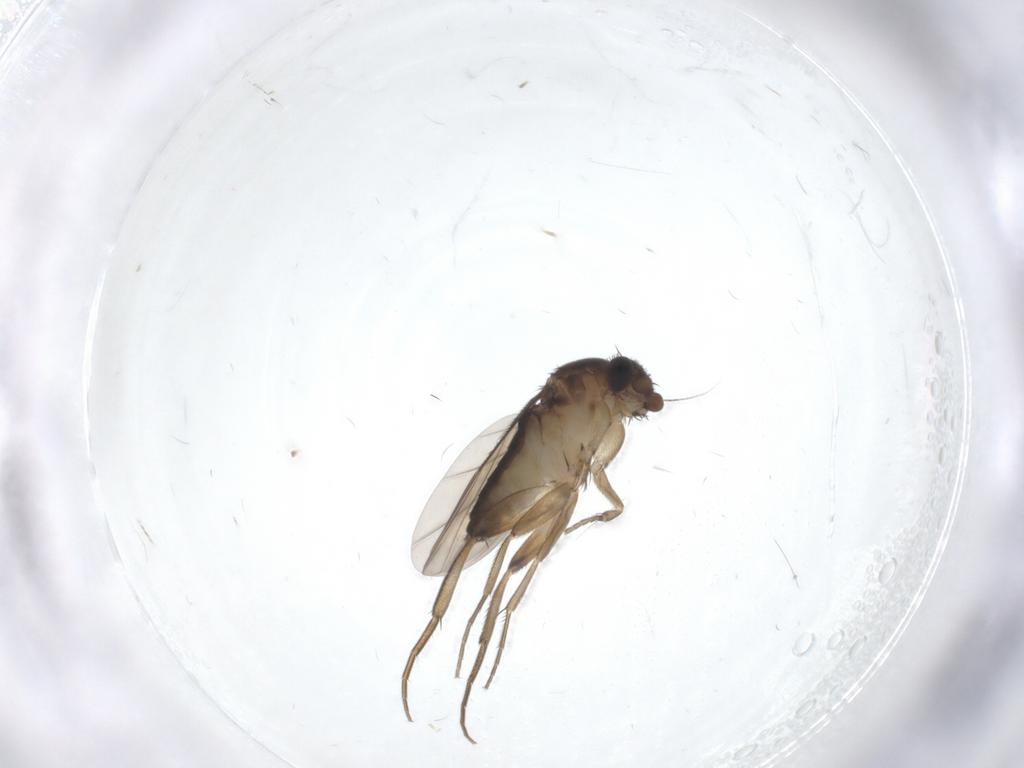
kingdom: Animalia
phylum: Arthropoda
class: Insecta
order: Diptera
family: Phoridae
